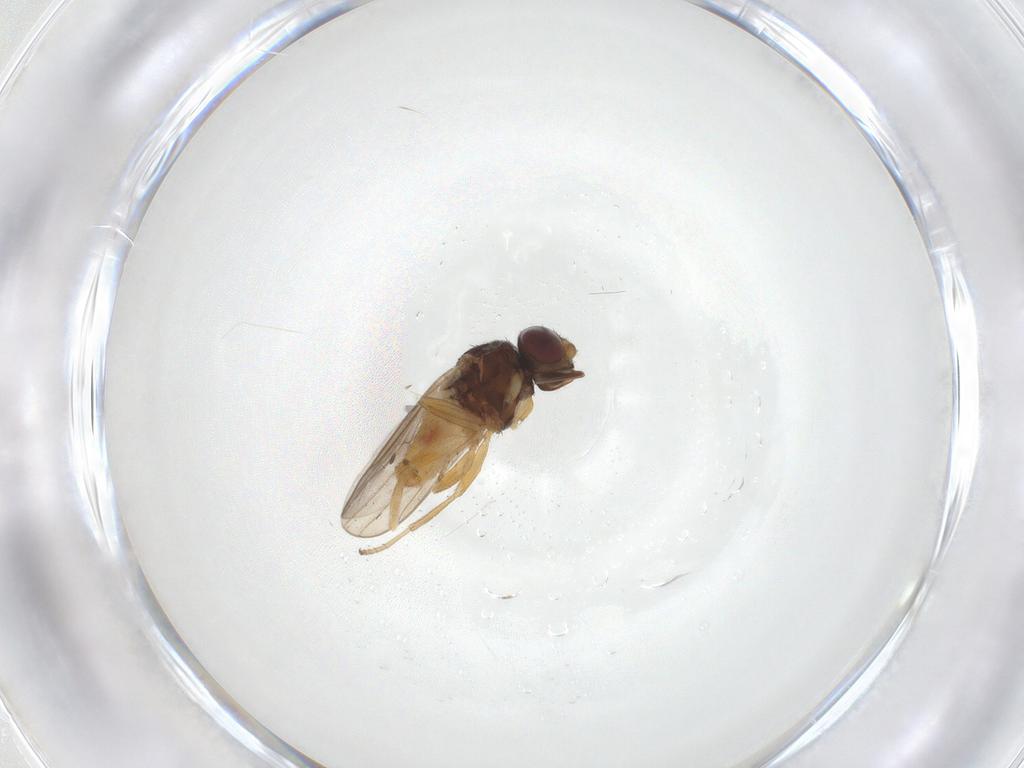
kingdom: Animalia
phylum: Arthropoda
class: Insecta
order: Diptera
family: Chloropidae
